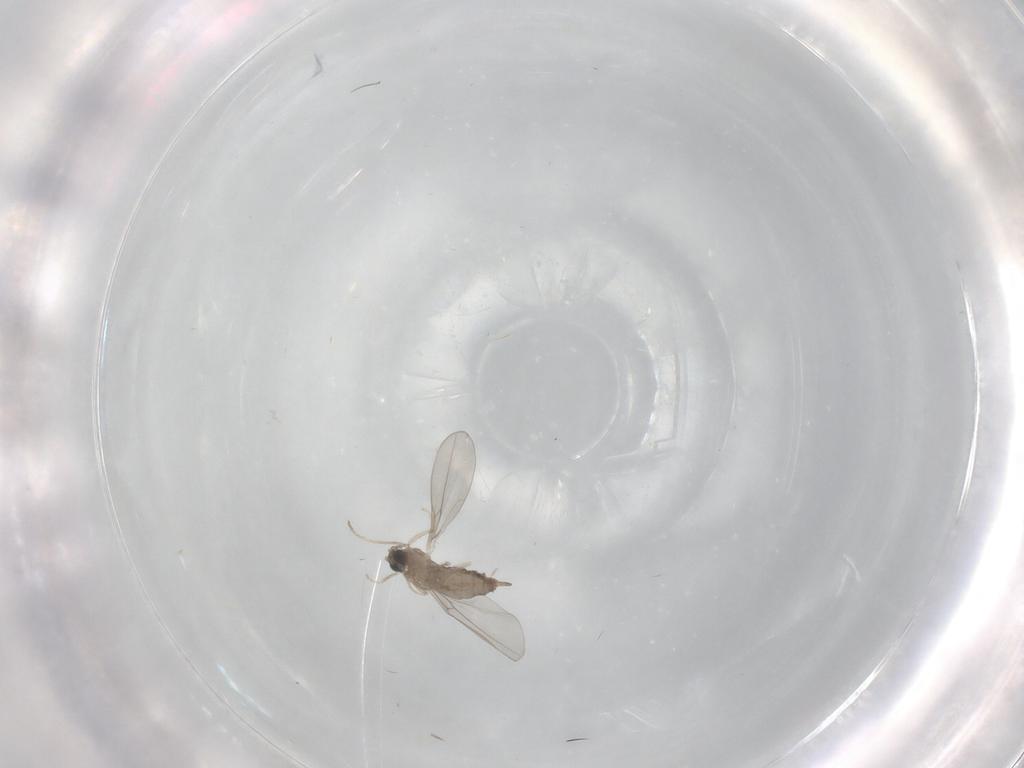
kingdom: Animalia
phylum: Arthropoda
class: Insecta
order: Diptera
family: Cecidomyiidae
